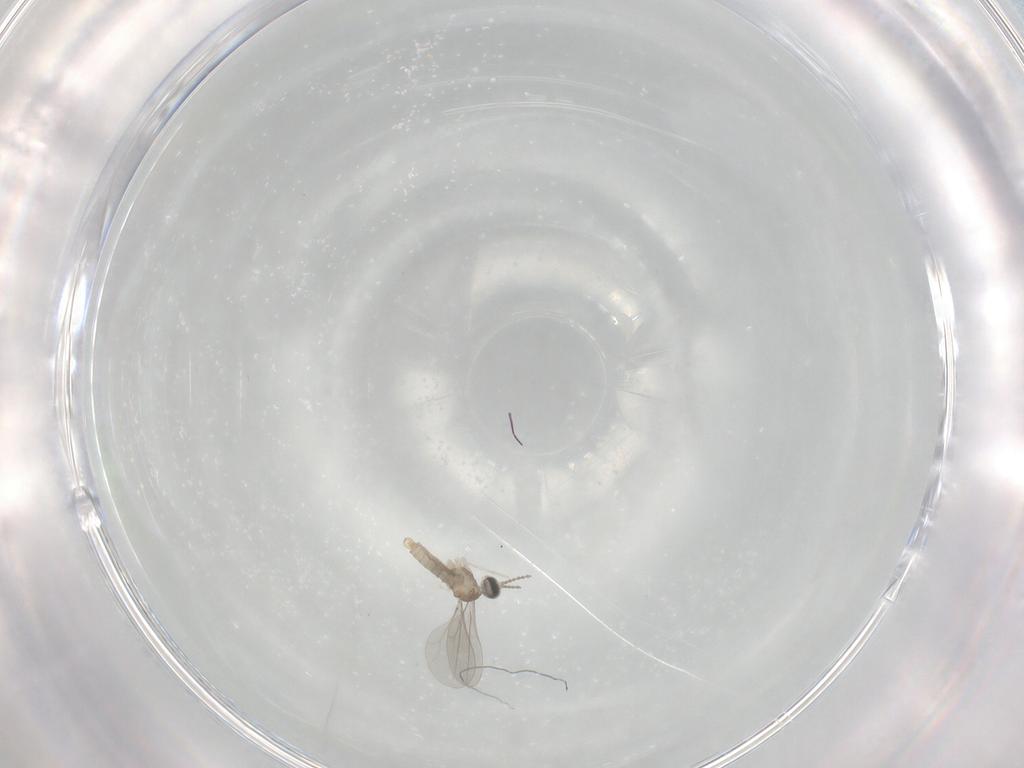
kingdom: Animalia
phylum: Arthropoda
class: Insecta
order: Diptera
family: Cecidomyiidae
